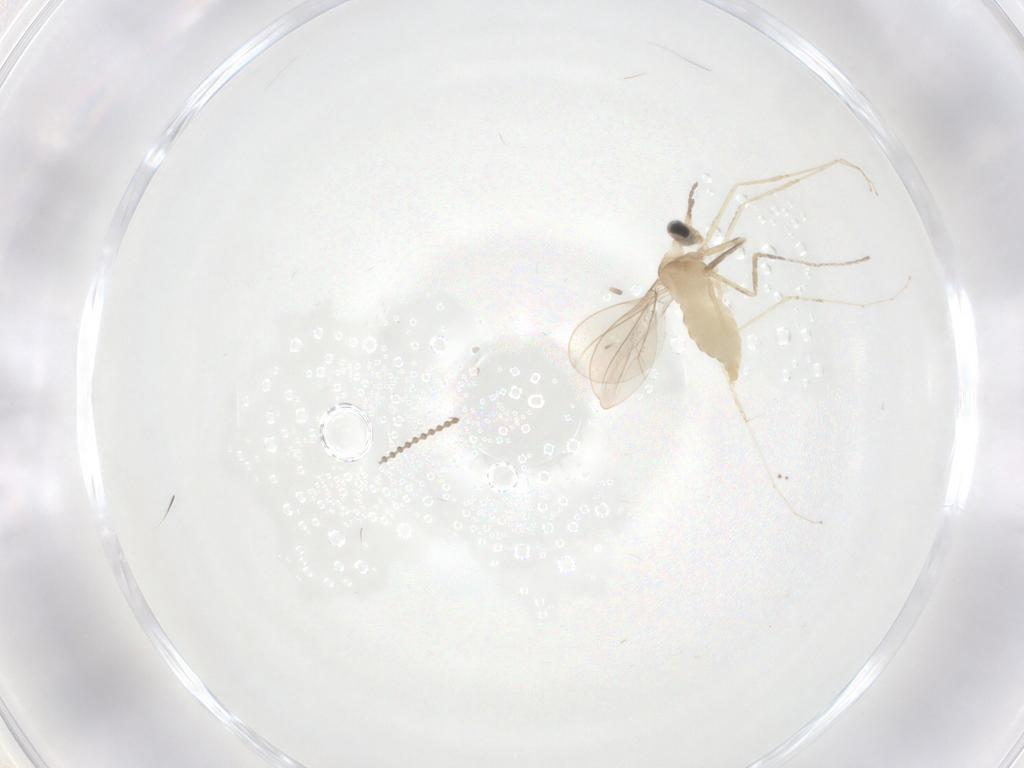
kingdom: Animalia
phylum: Arthropoda
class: Insecta
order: Diptera
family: Cecidomyiidae
